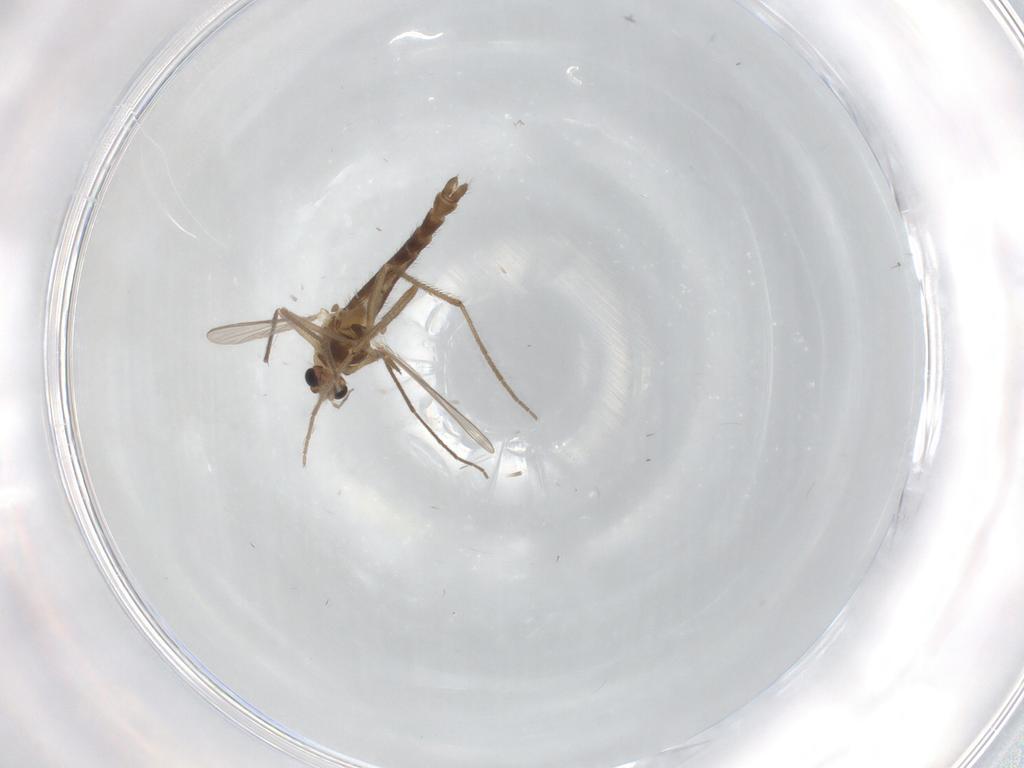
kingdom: Animalia
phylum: Arthropoda
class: Insecta
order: Diptera
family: Chironomidae
